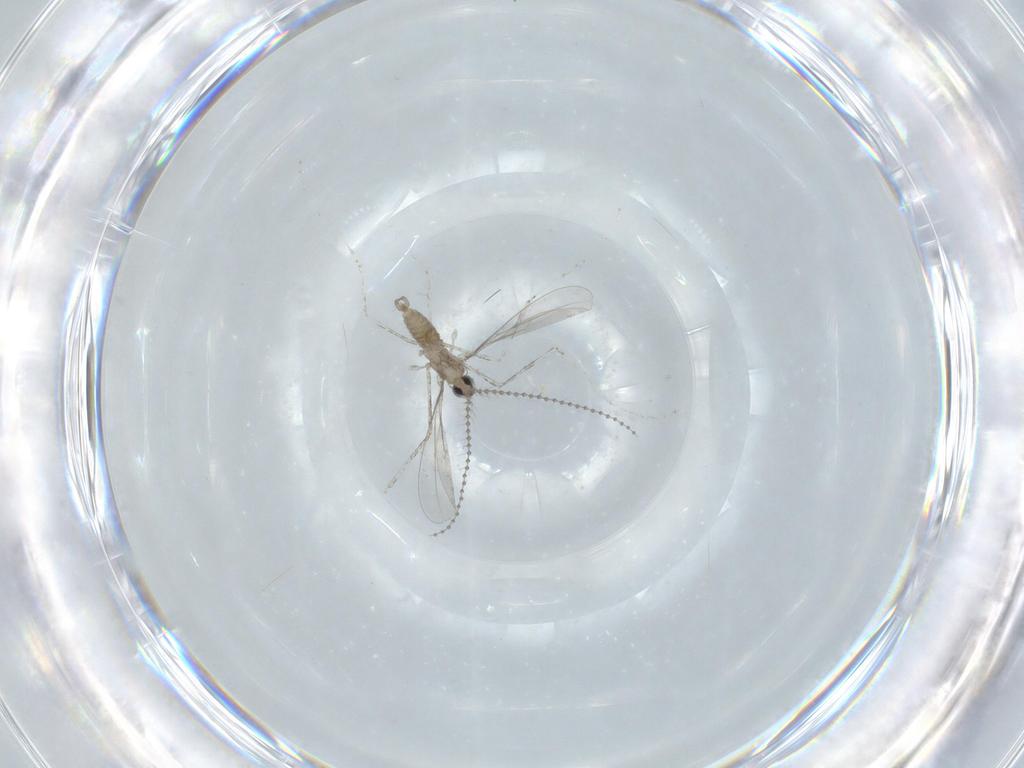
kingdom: Animalia
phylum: Arthropoda
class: Insecta
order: Diptera
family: Cecidomyiidae
